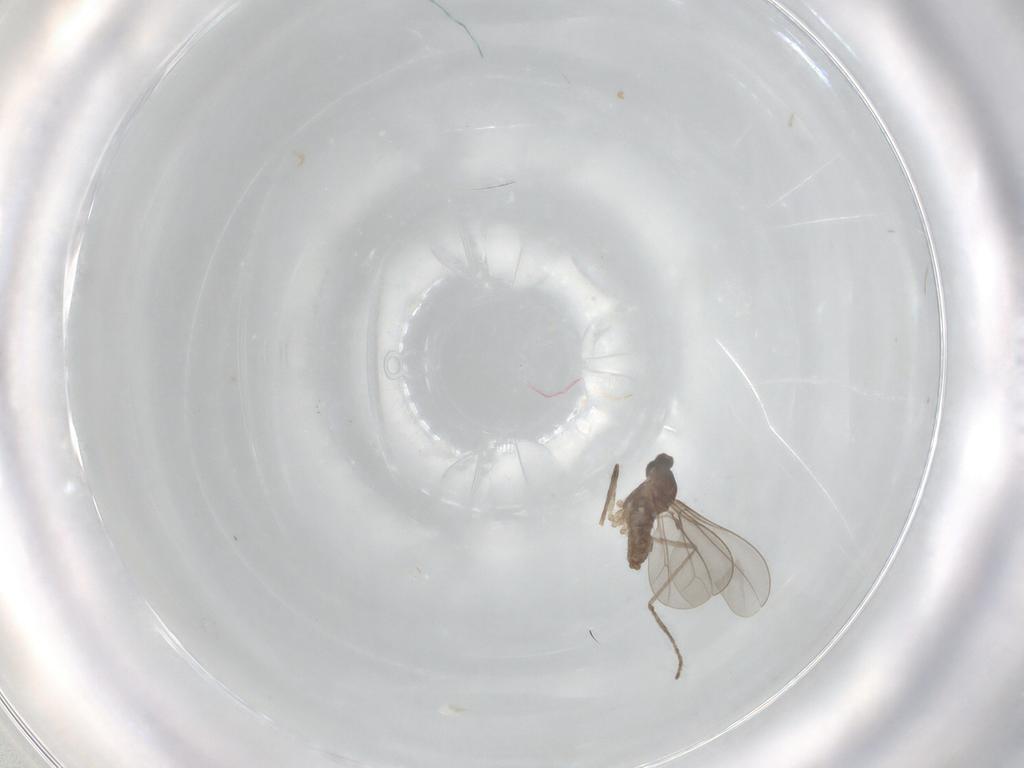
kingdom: Animalia
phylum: Arthropoda
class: Insecta
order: Diptera
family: Cecidomyiidae
